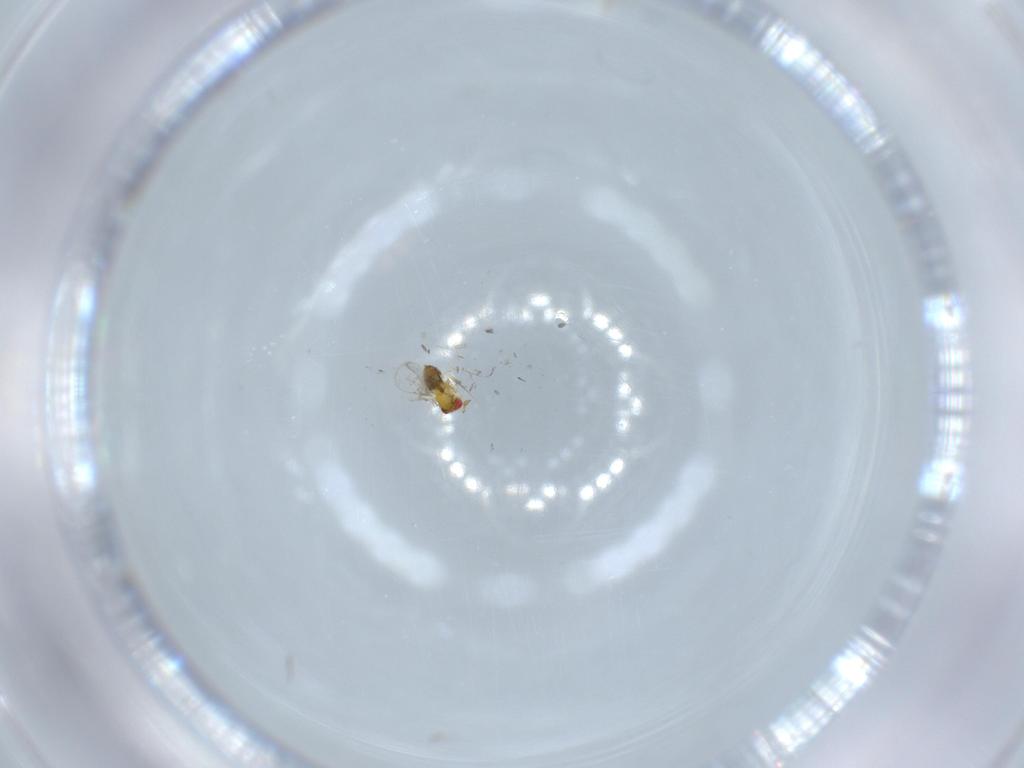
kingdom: Animalia
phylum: Arthropoda
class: Insecta
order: Hymenoptera
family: Trichogrammatidae
